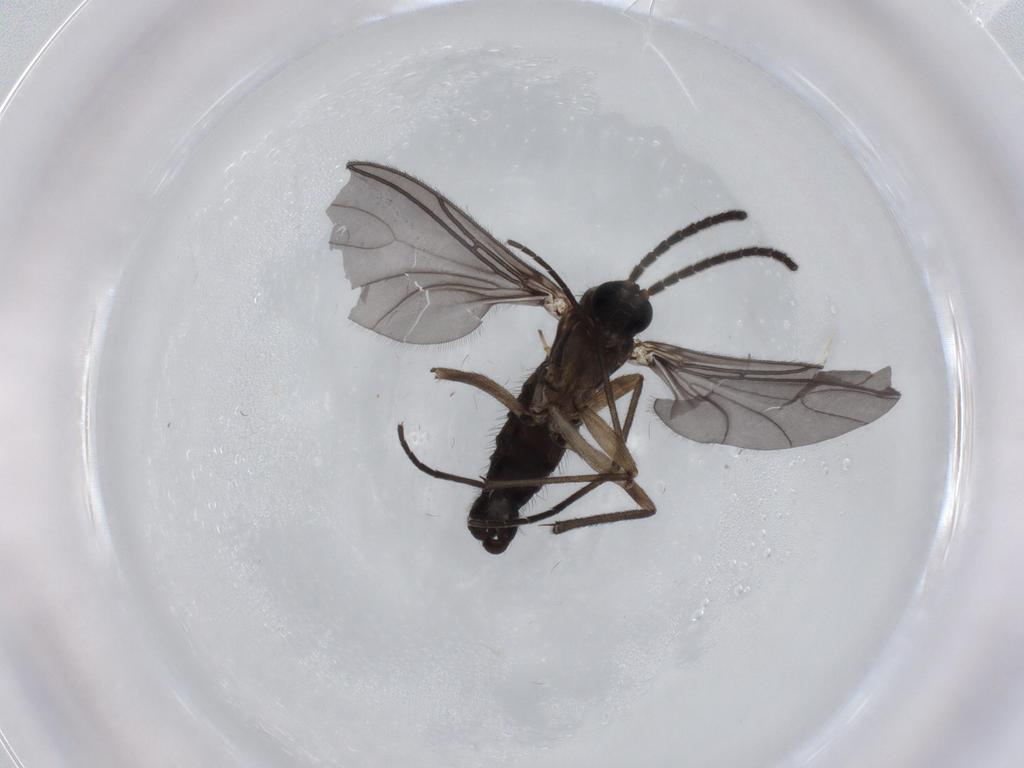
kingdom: Animalia
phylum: Arthropoda
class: Insecta
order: Diptera
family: Sciaridae
